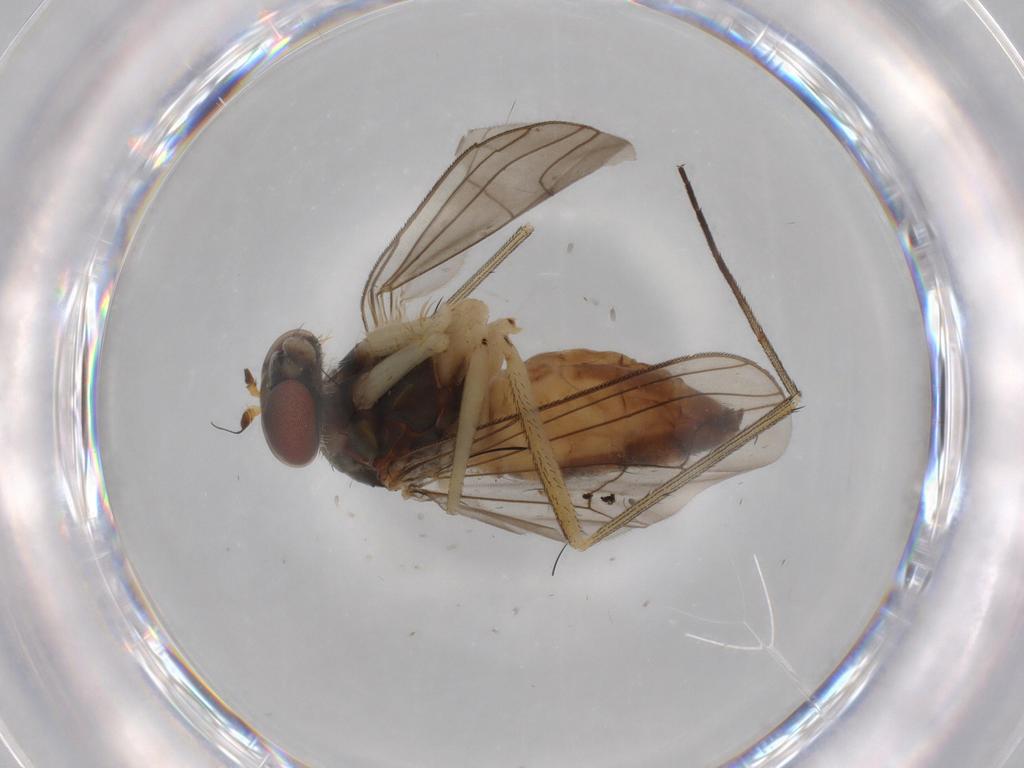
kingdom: Animalia
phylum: Arthropoda
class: Insecta
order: Diptera
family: Dolichopodidae
